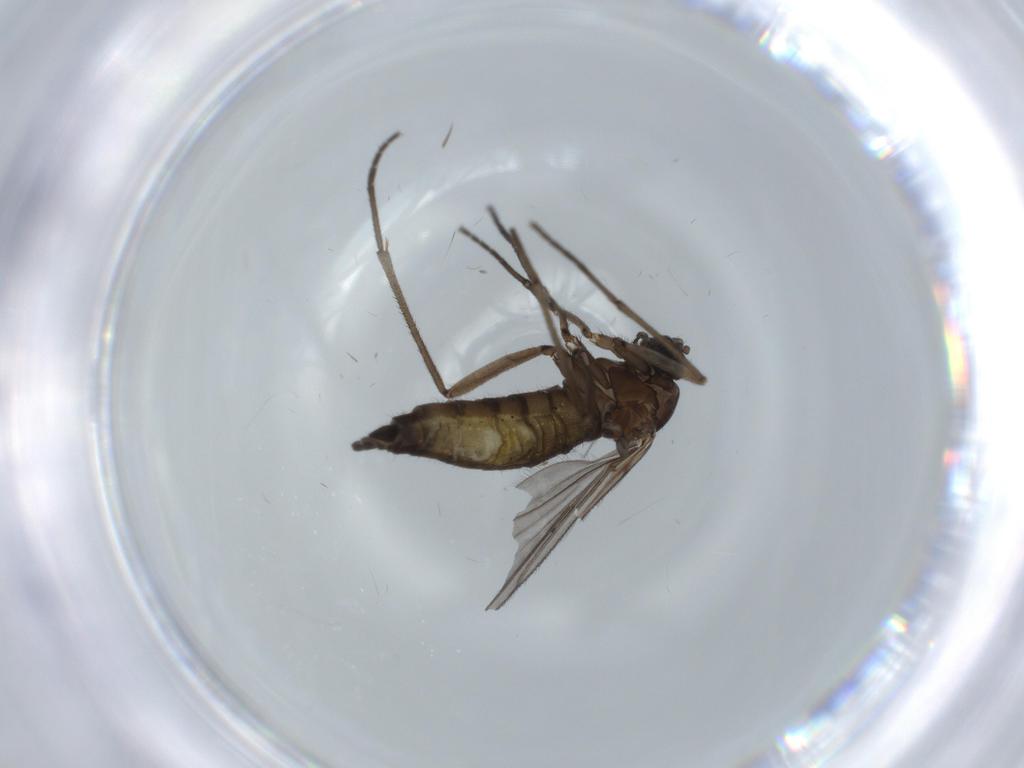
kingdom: Animalia
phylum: Arthropoda
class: Insecta
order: Diptera
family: Sciaridae
